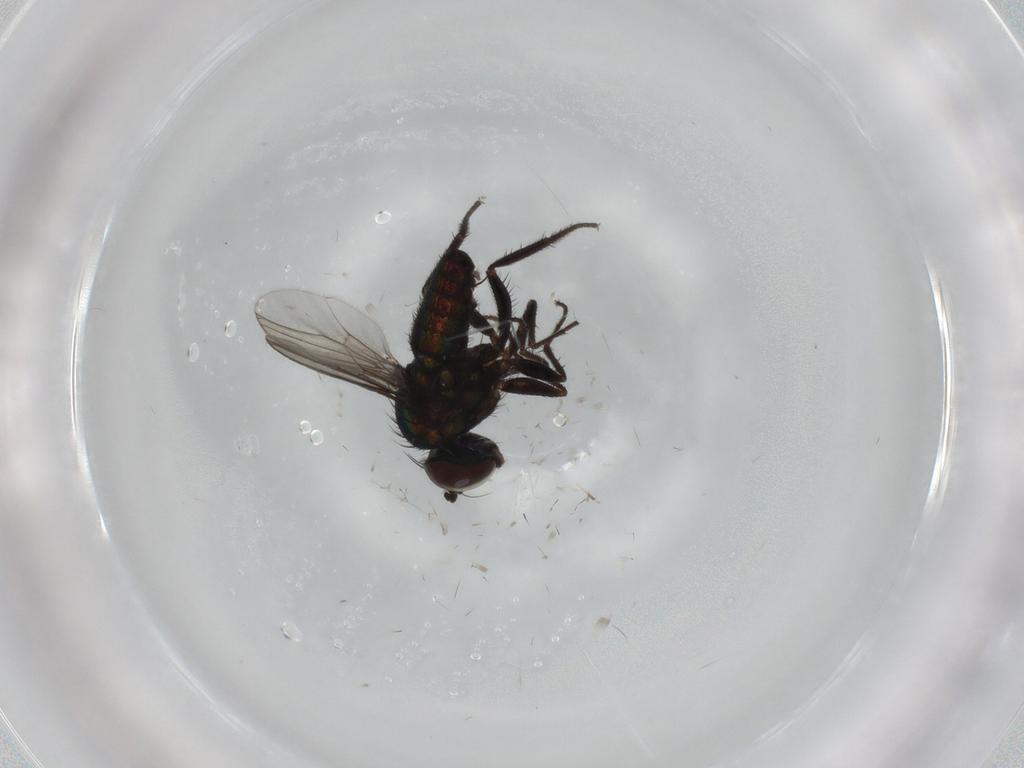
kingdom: Animalia
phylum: Arthropoda
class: Insecta
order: Diptera
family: Dolichopodidae
